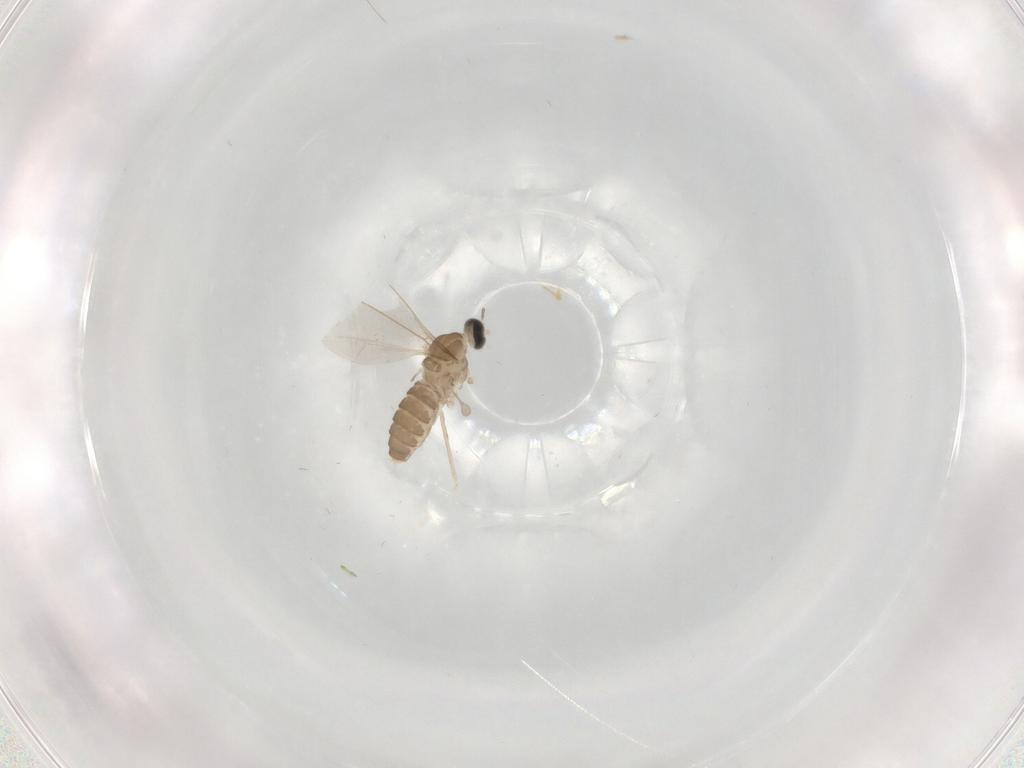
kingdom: Animalia
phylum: Arthropoda
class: Insecta
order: Diptera
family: Cecidomyiidae
